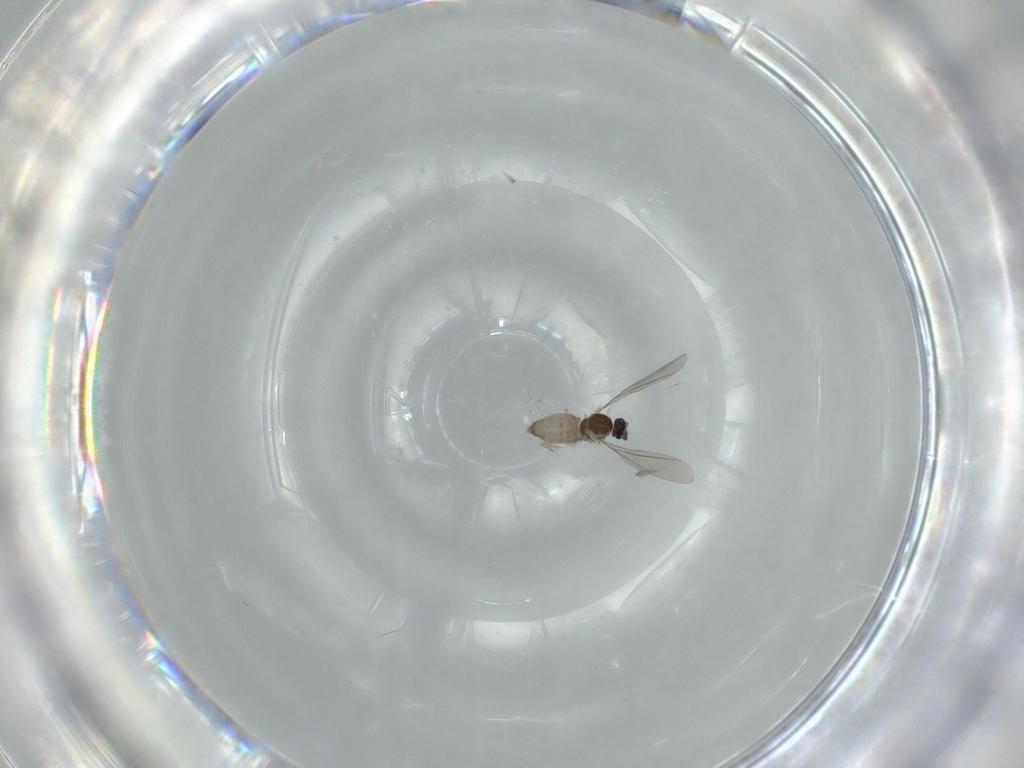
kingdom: Animalia
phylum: Arthropoda
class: Insecta
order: Diptera
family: Cecidomyiidae
